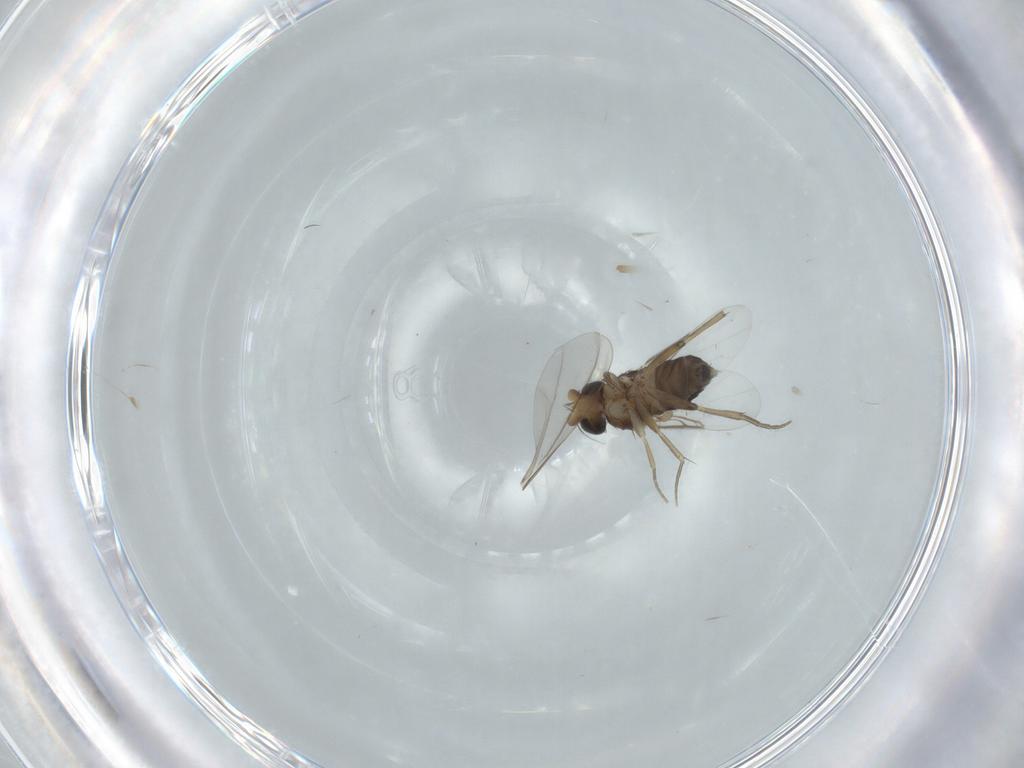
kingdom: Animalia
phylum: Arthropoda
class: Insecta
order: Diptera
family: Phoridae
